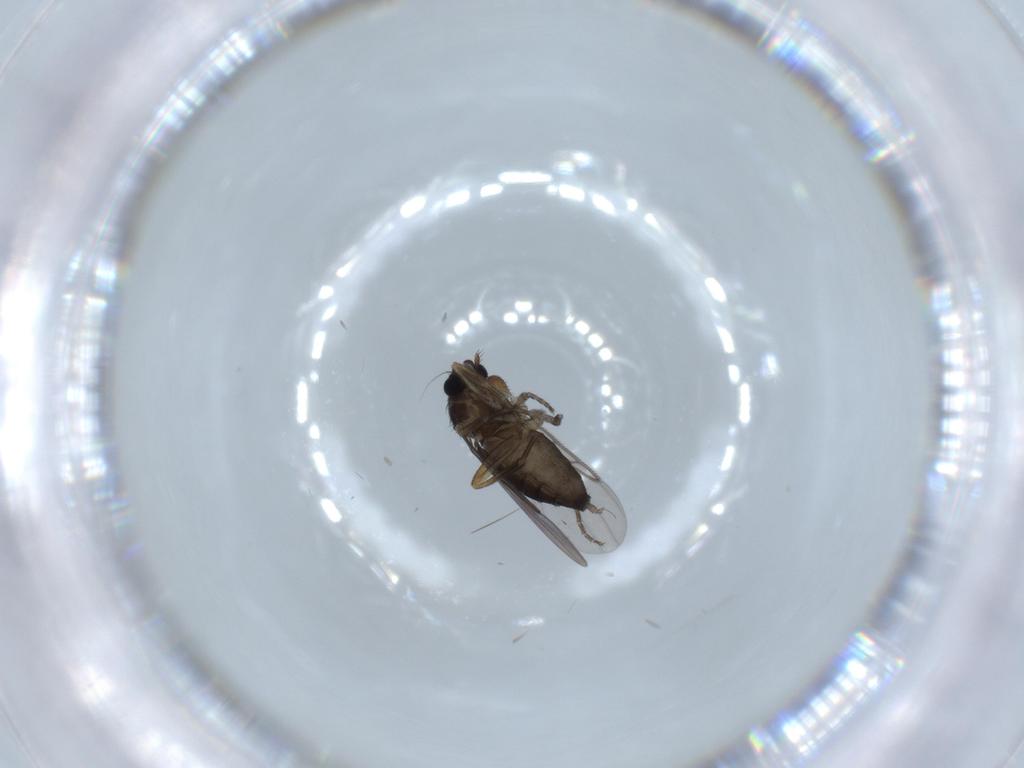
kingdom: Animalia
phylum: Arthropoda
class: Insecta
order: Diptera
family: Phoridae
